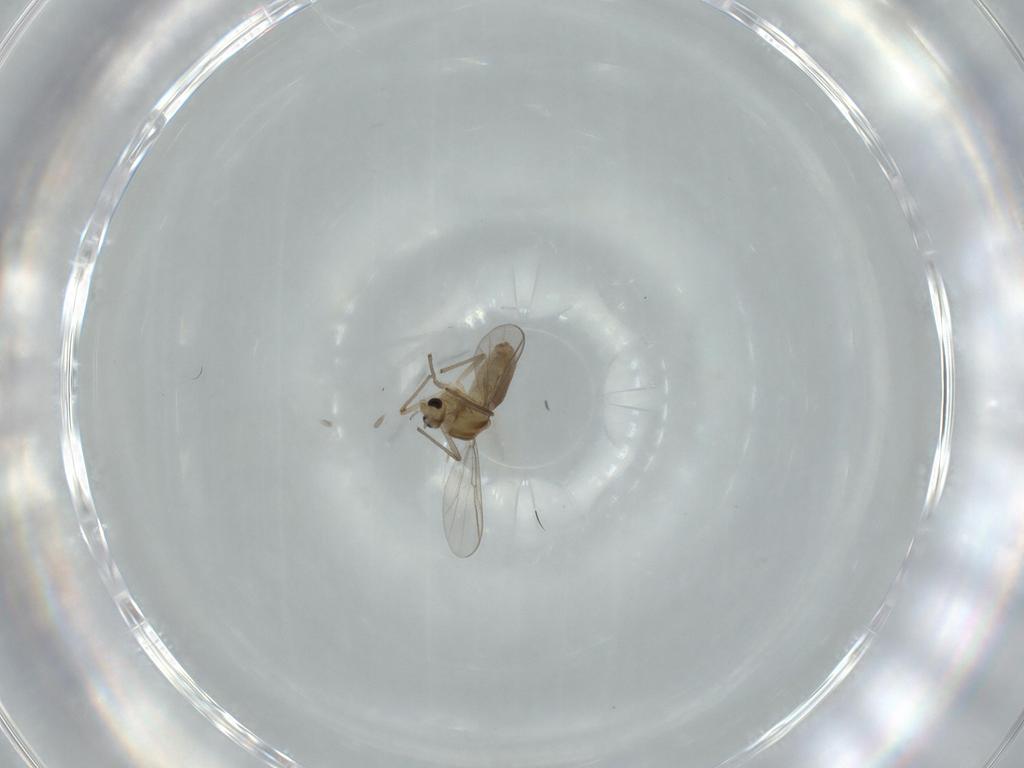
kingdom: Animalia
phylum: Arthropoda
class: Insecta
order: Diptera
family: Chironomidae
